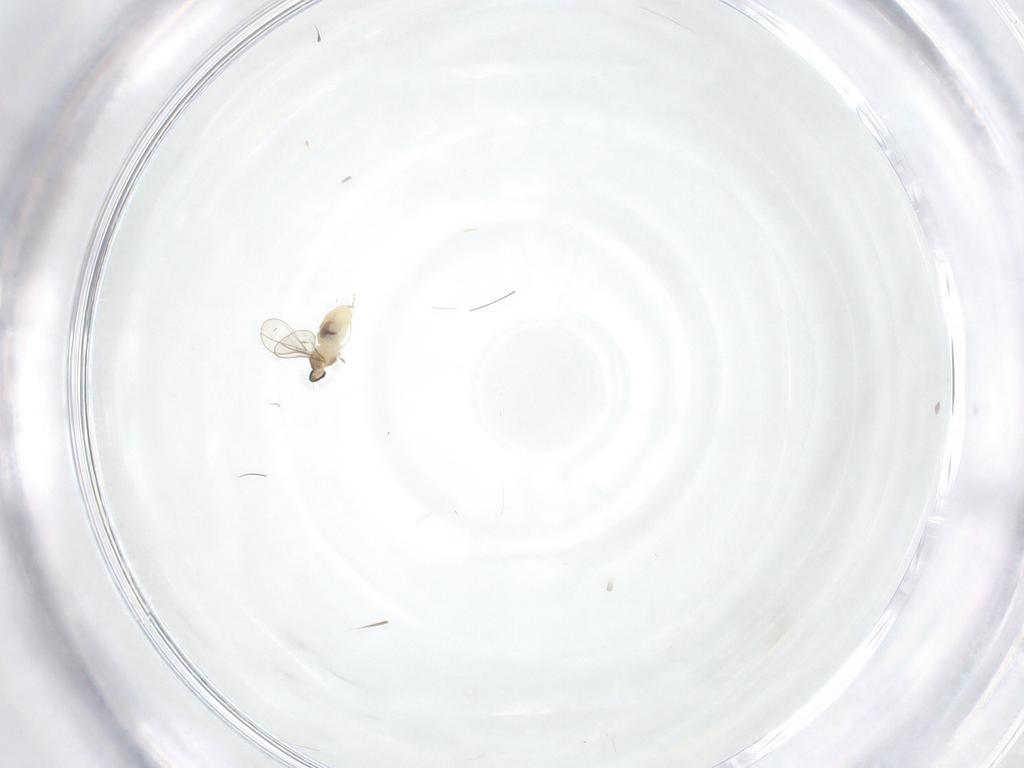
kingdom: Animalia
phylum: Arthropoda
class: Insecta
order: Diptera
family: Cecidomyiidae
